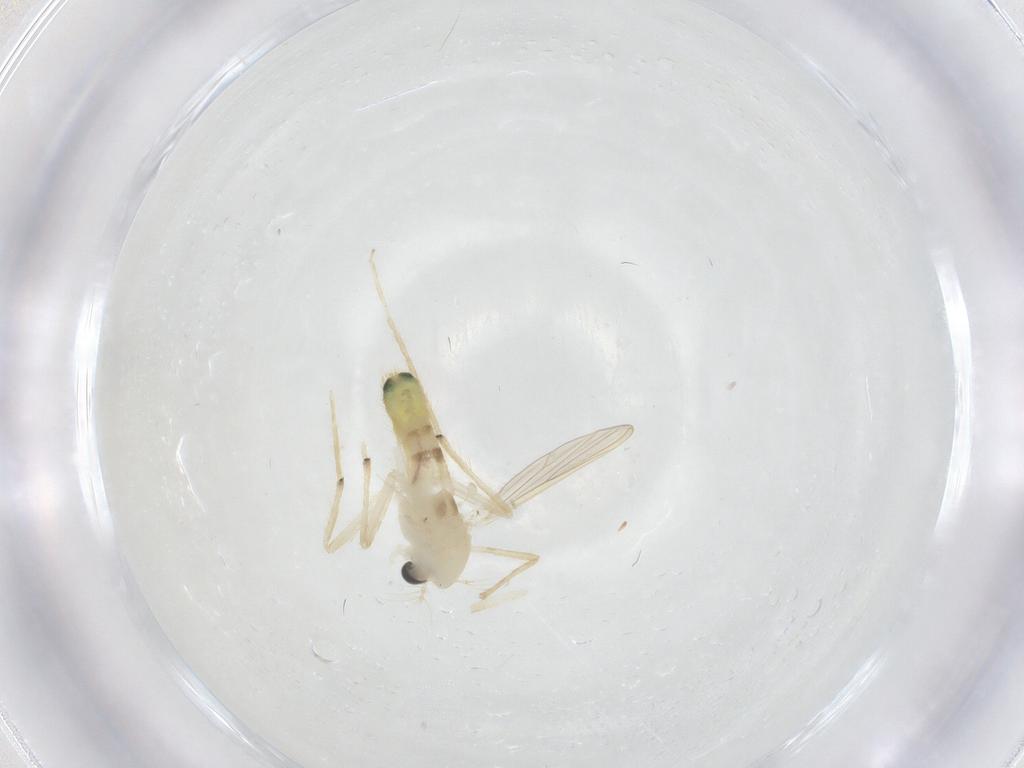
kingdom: Animalia
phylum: Arthropoda
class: Insecta
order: Diptera
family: Chironomidae
